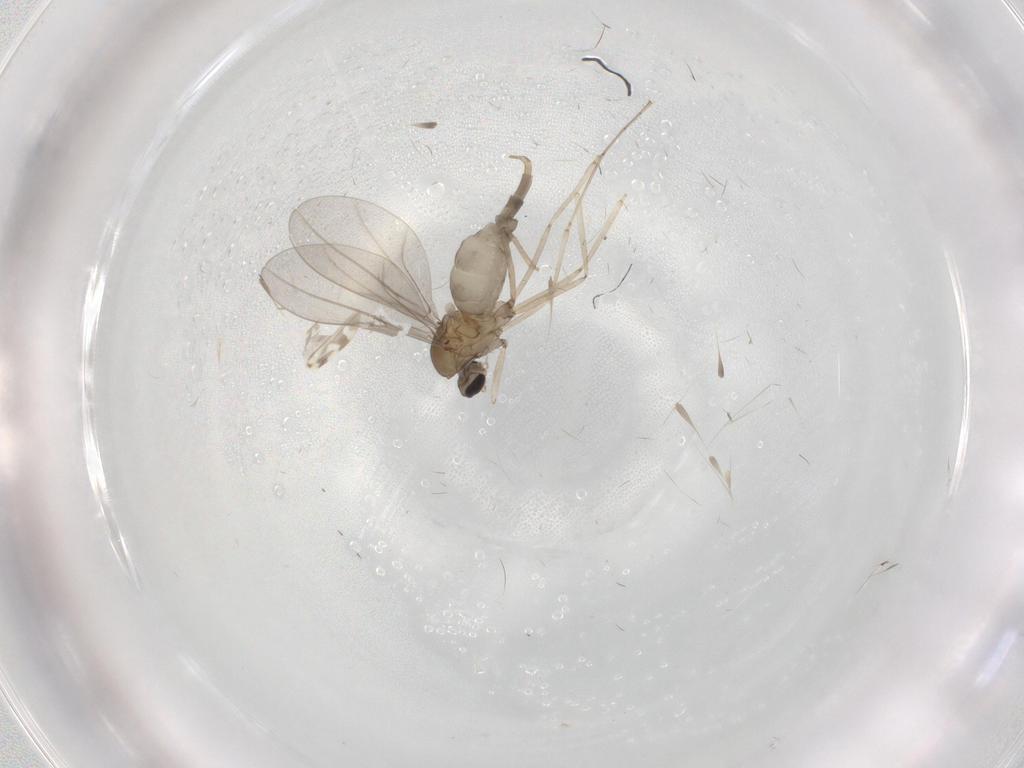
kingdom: Animalia
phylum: Arthropoda
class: Insecta
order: Diptera
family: Cecidomyiidae
